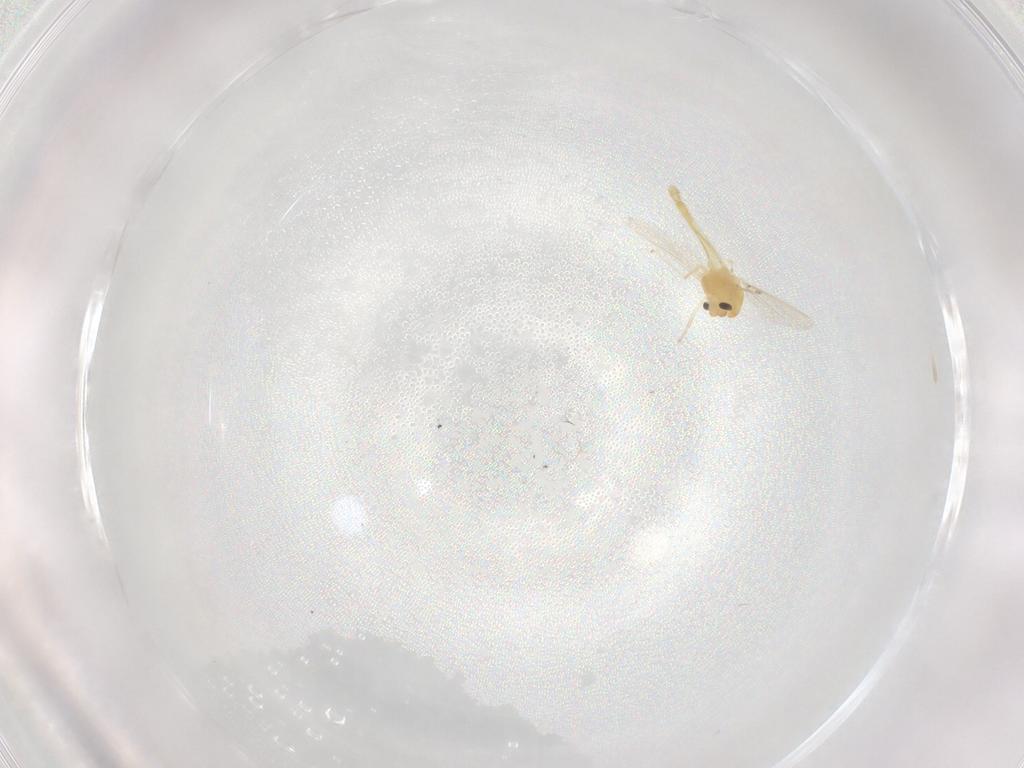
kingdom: Animalia
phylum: Arthropoda
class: Insecta
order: Diptera
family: Chironomidae
